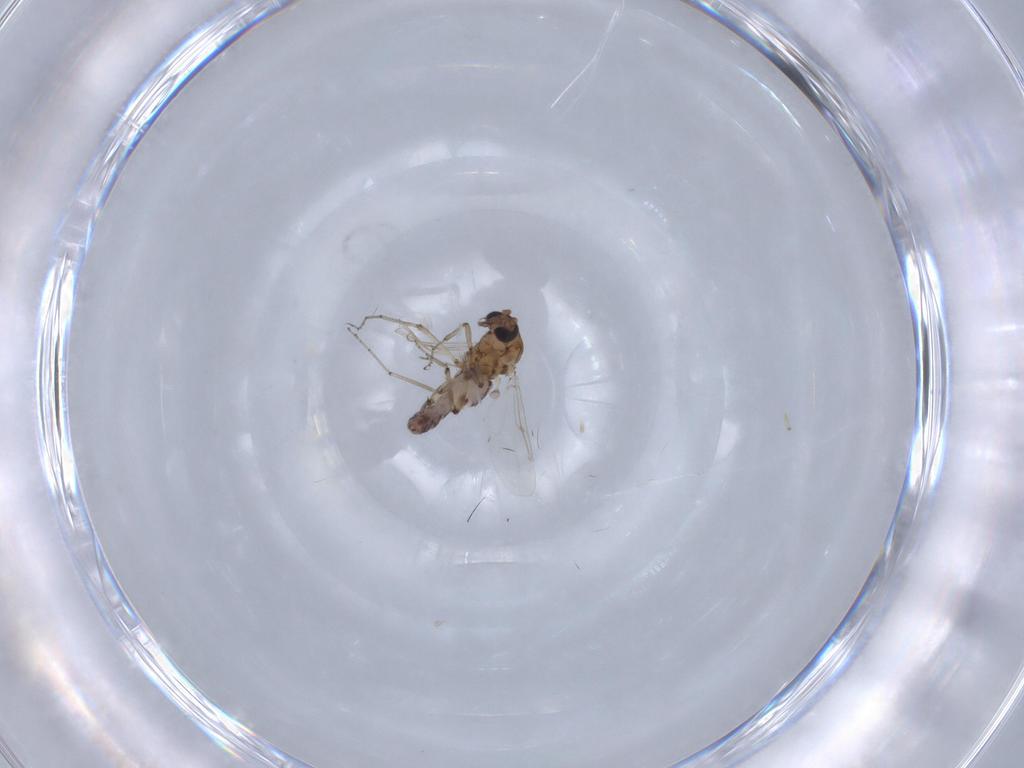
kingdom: Animalia
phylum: Arthropoda
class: Insecta
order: Diptera
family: Ceratopogonidae
